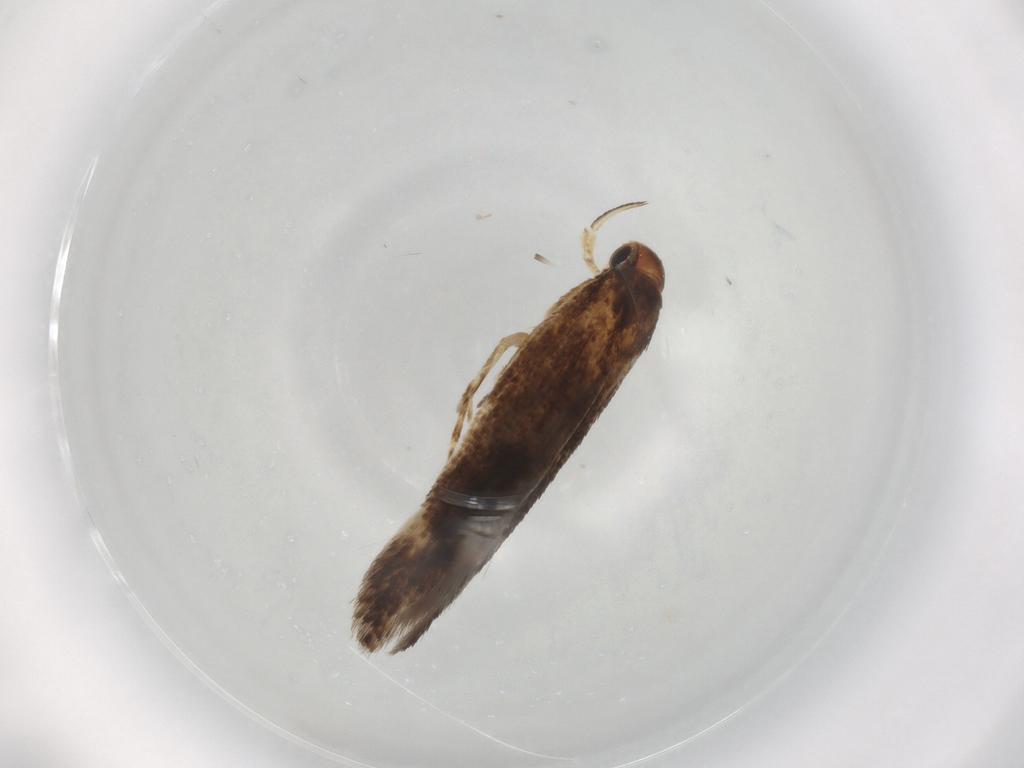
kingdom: Animalia
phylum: Arthropoda
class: Insecta
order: Lepidoptera
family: Gelechiidae
